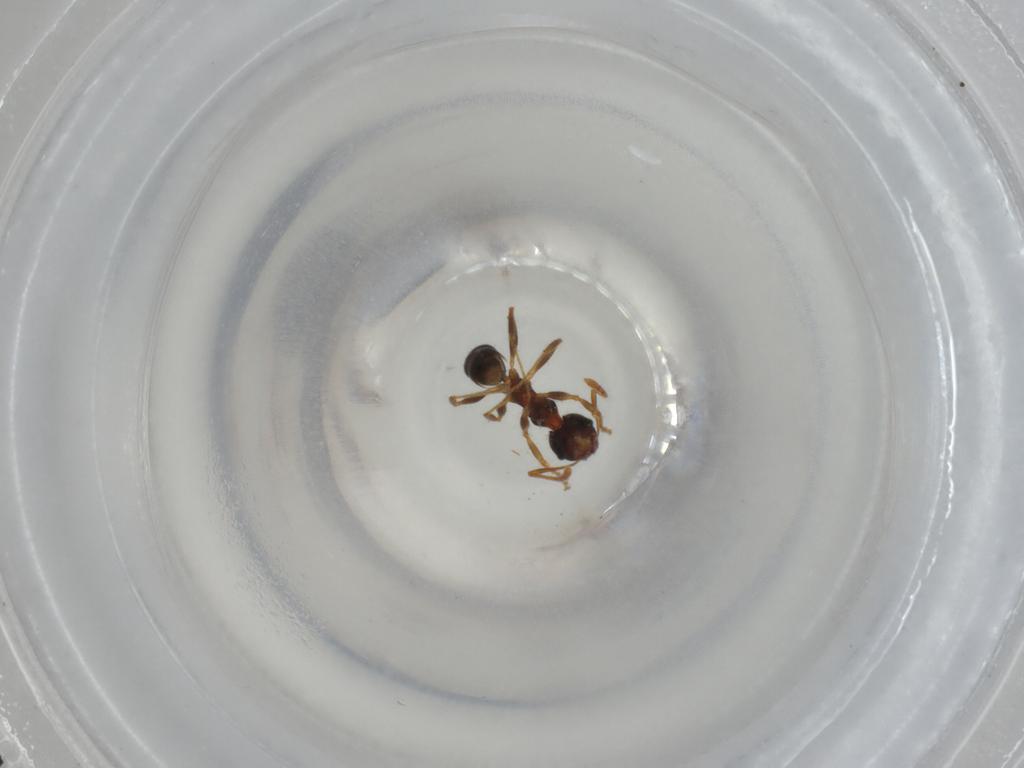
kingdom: Animalia
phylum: Arthropoda
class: Insecta
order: Hymenoptera
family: Formicidae
